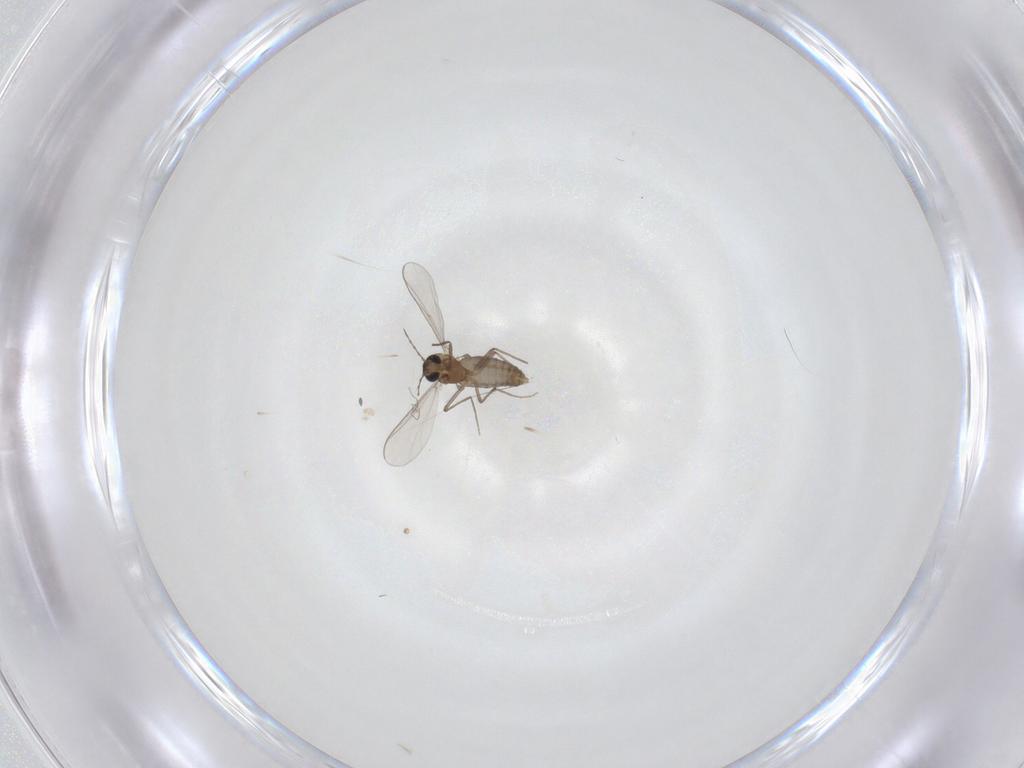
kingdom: Animalia
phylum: Arthropoda
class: Insecta
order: Diptera
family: Chironomidae
